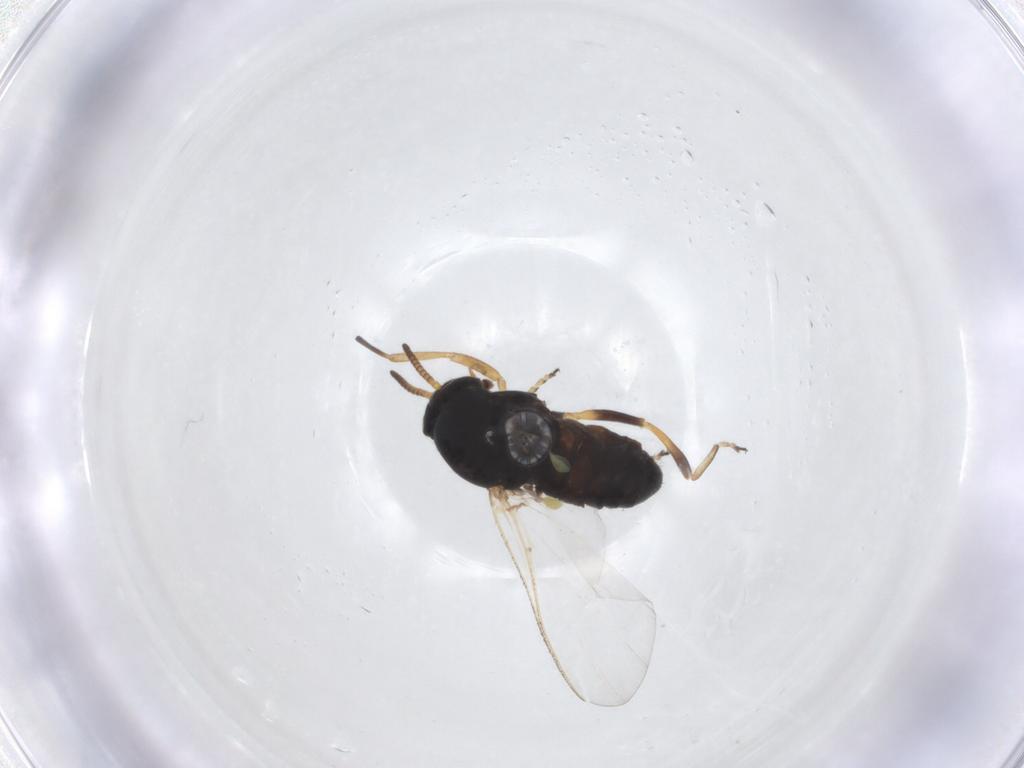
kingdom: Animalia
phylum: Arthropoda
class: Insecta
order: Diptera
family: Simuliidae
